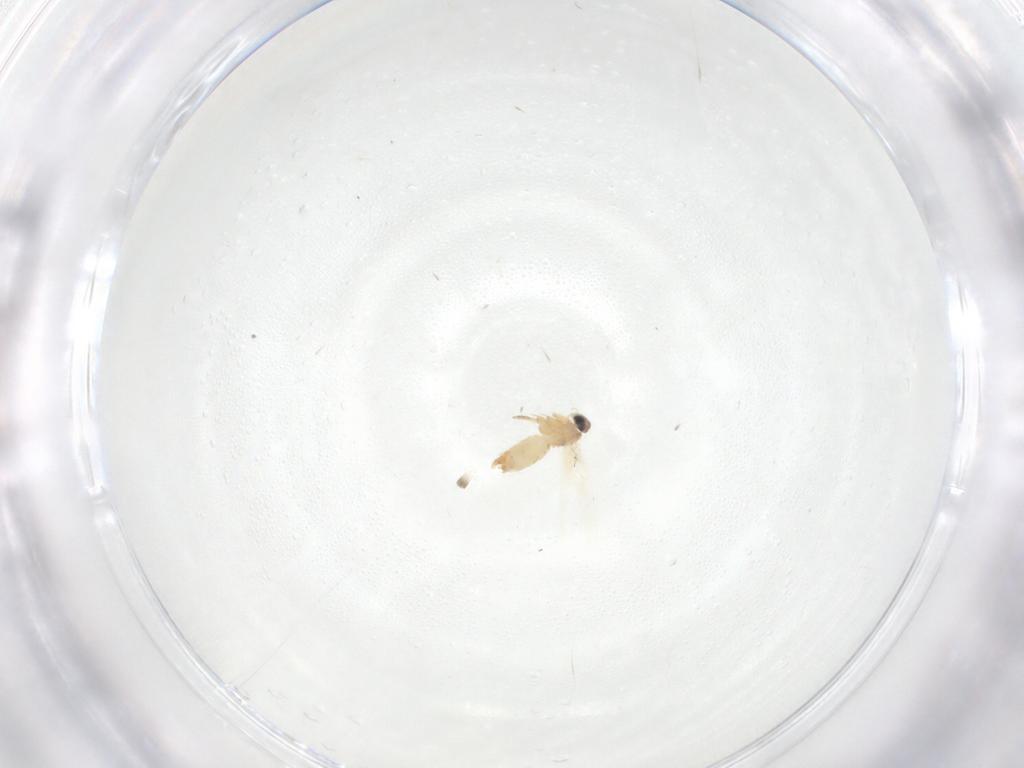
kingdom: Animalia
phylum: Arthropoda
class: Insecta
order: Lepidoptera
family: Crambidae
